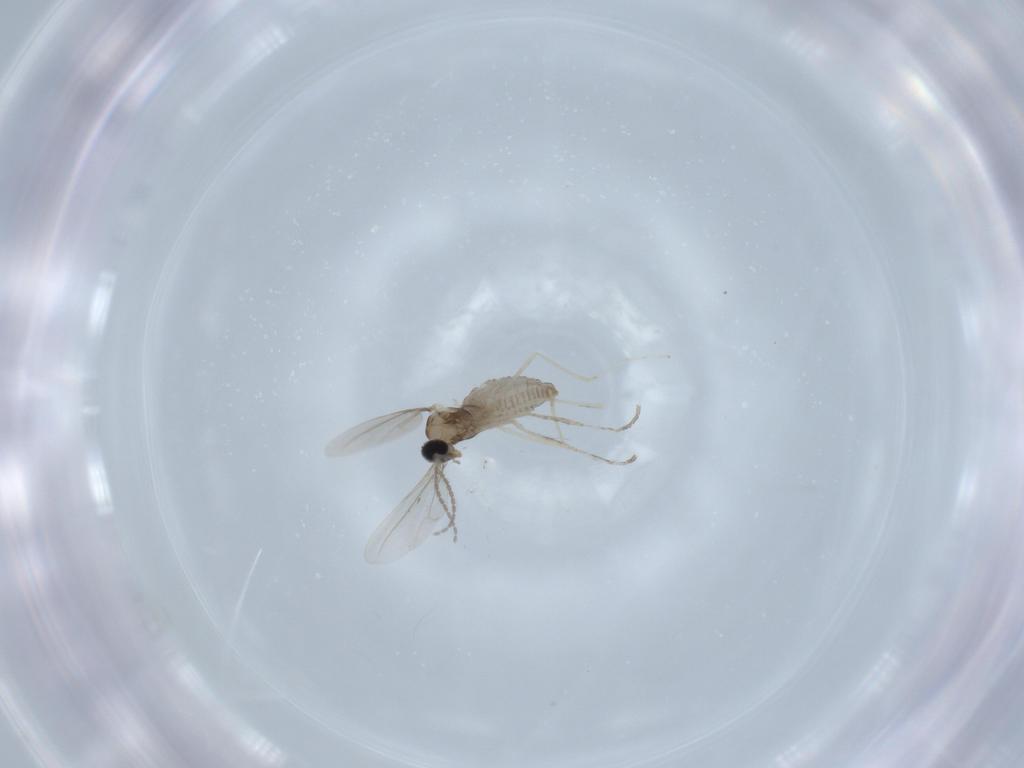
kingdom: Animalia
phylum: Arthropoda
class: Insecta
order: Diptera
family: Cecidomyiidae
